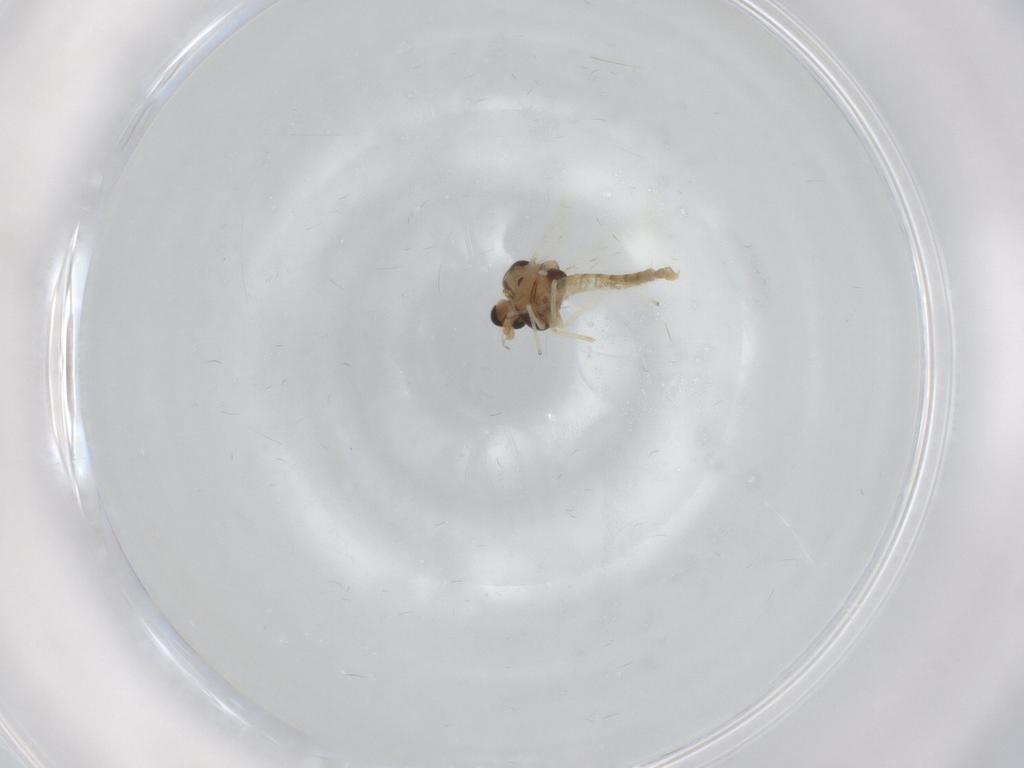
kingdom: Animalia
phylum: Arthropoda
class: Insecta
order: Diptera
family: Chironomidae
